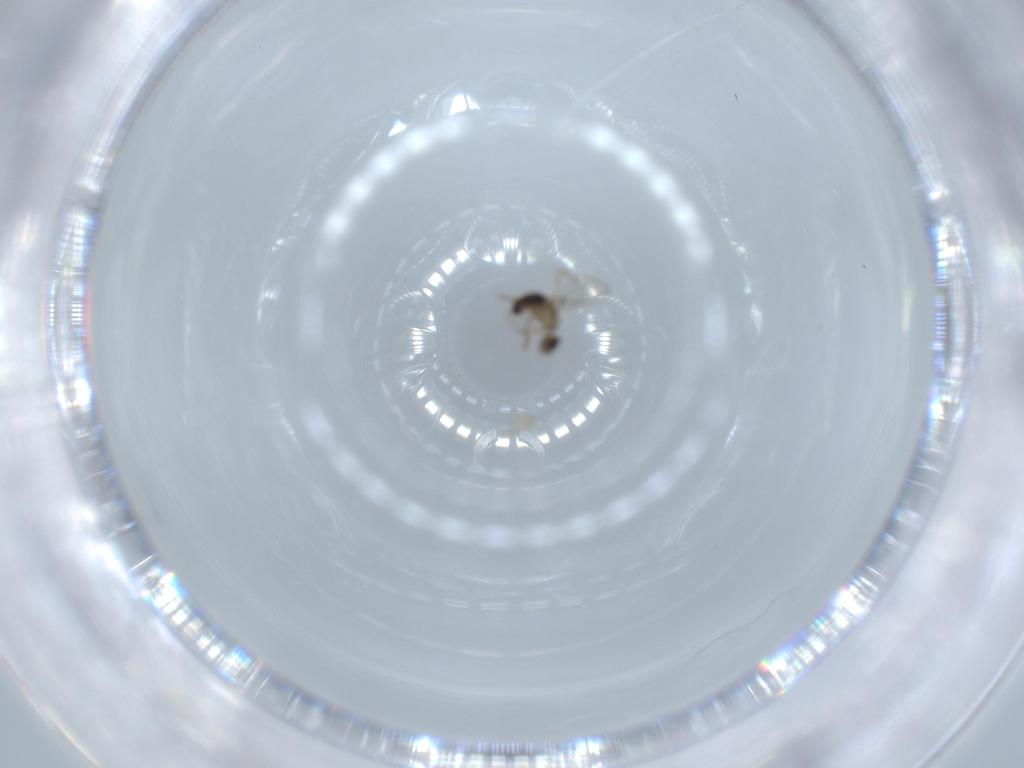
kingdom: Animalia
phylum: Arthropoda
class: Insecta
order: Diptera
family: Phoridae
